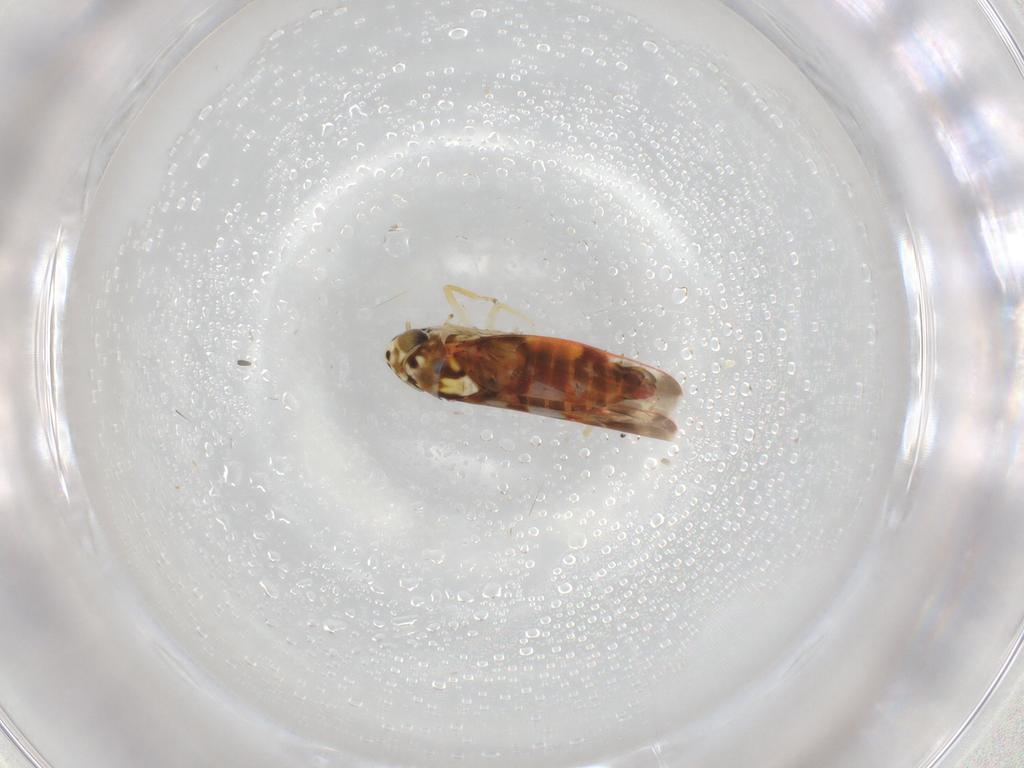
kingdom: Animalia
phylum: Arthropoda
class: Insecta
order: Hemiptera
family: Cicadellidae
